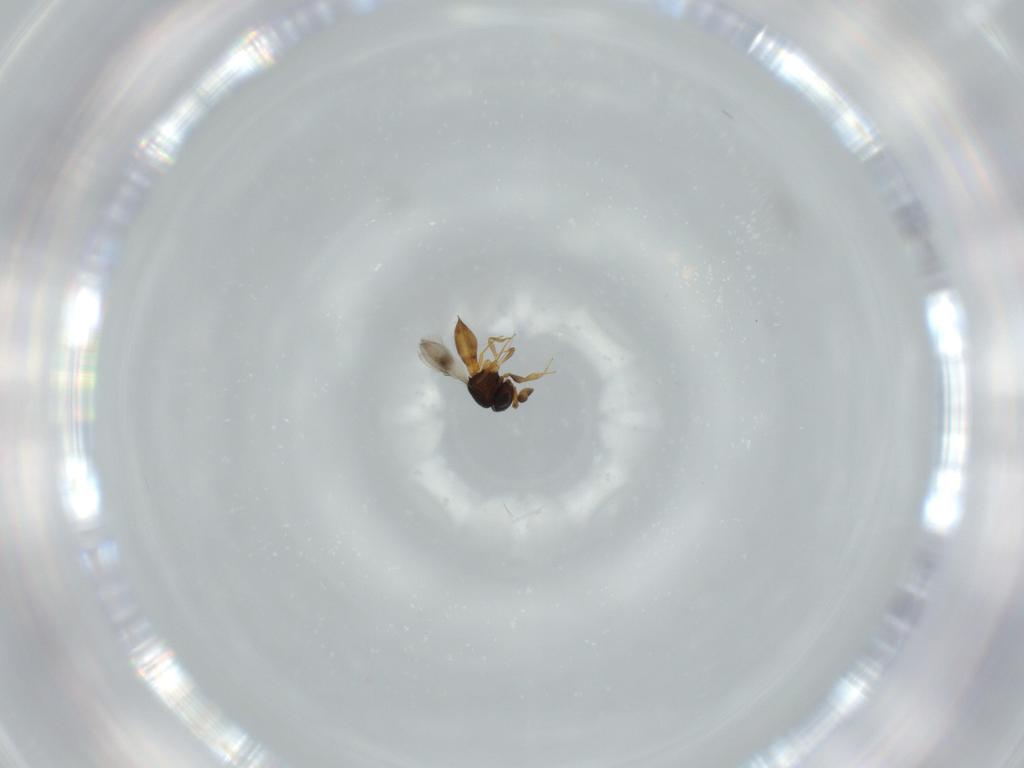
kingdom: Animalia
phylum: Arthropoda
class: Insecta
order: Hymenoptera
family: Scelionidae
